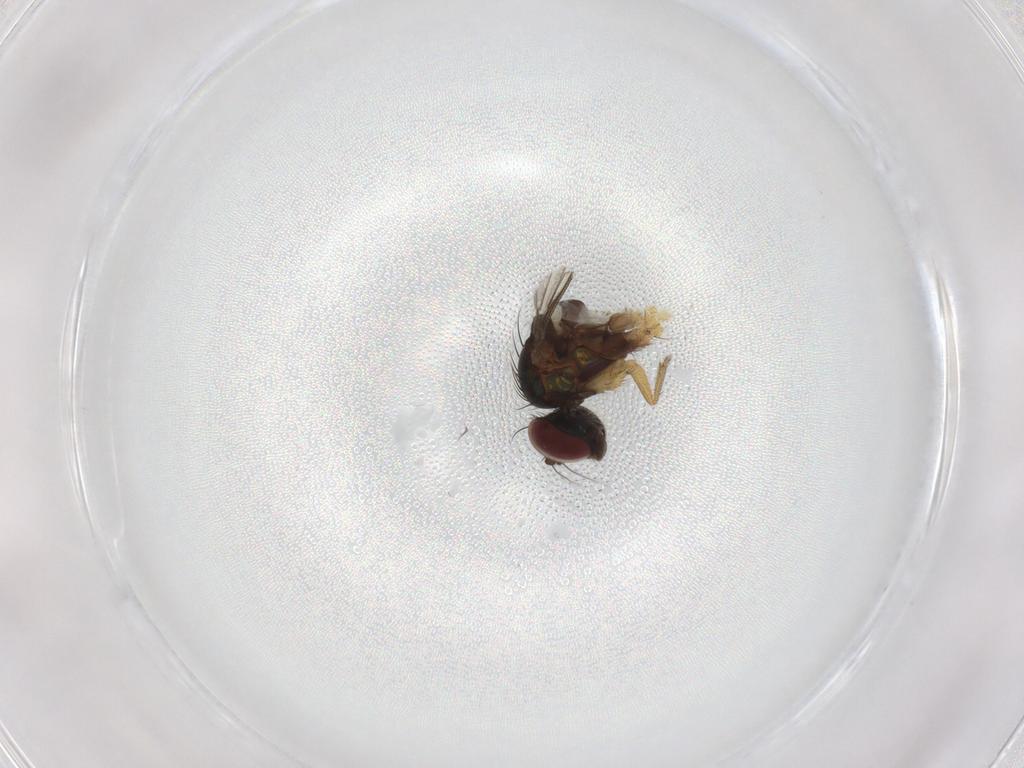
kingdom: Animalia
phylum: Arthropoda
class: Insecta
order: Diptera
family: Dolichopodidae
